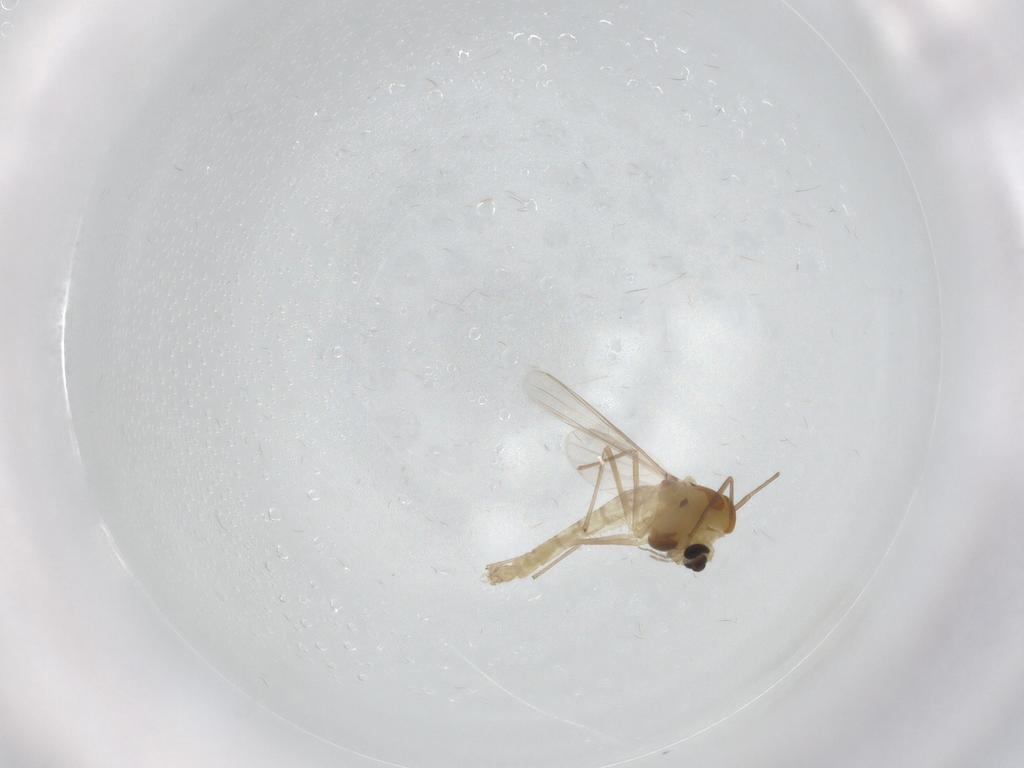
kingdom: Animalia
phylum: Arthropoda
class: Insecta
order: Diptera
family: Chironomidae
